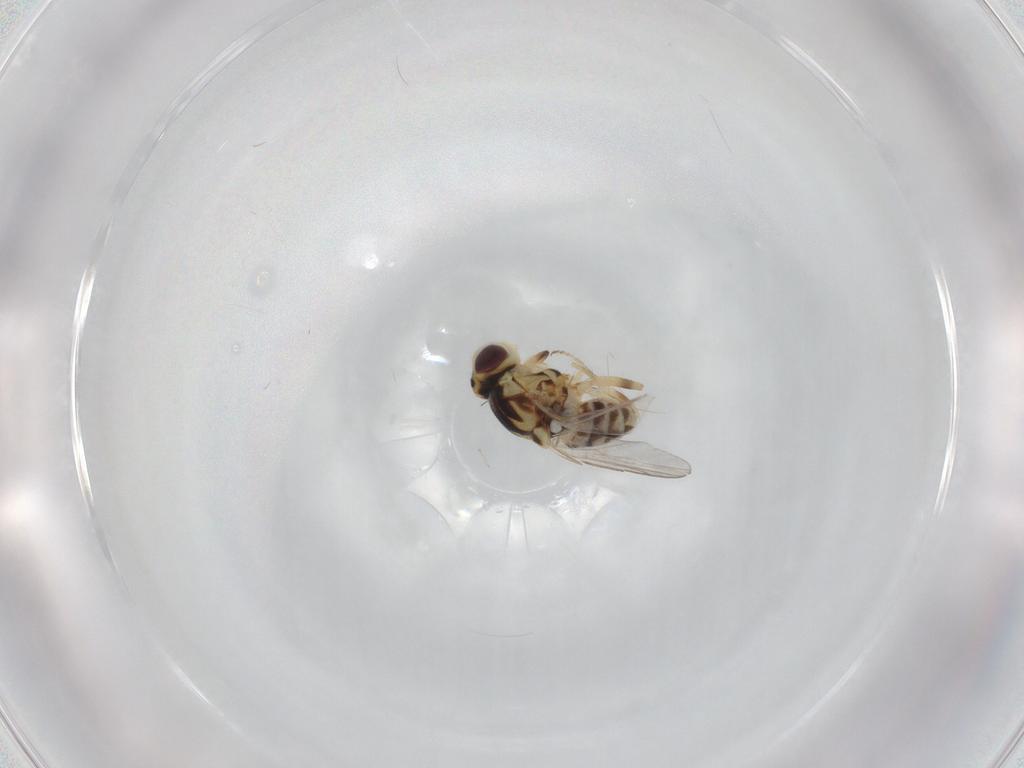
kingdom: Animalia
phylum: Arthropoda
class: Insecta
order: Diptera
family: Chloropidae
